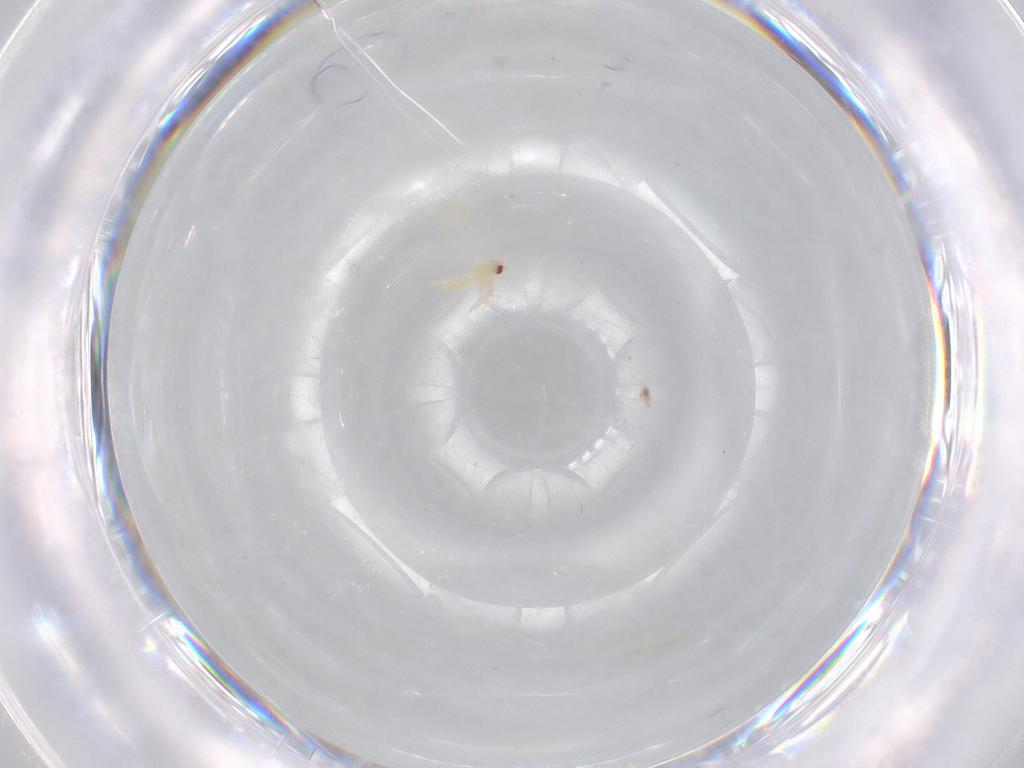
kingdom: Animalia
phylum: Arthropoda
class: Insecta
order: Hemiptera
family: Aleyrodidae
